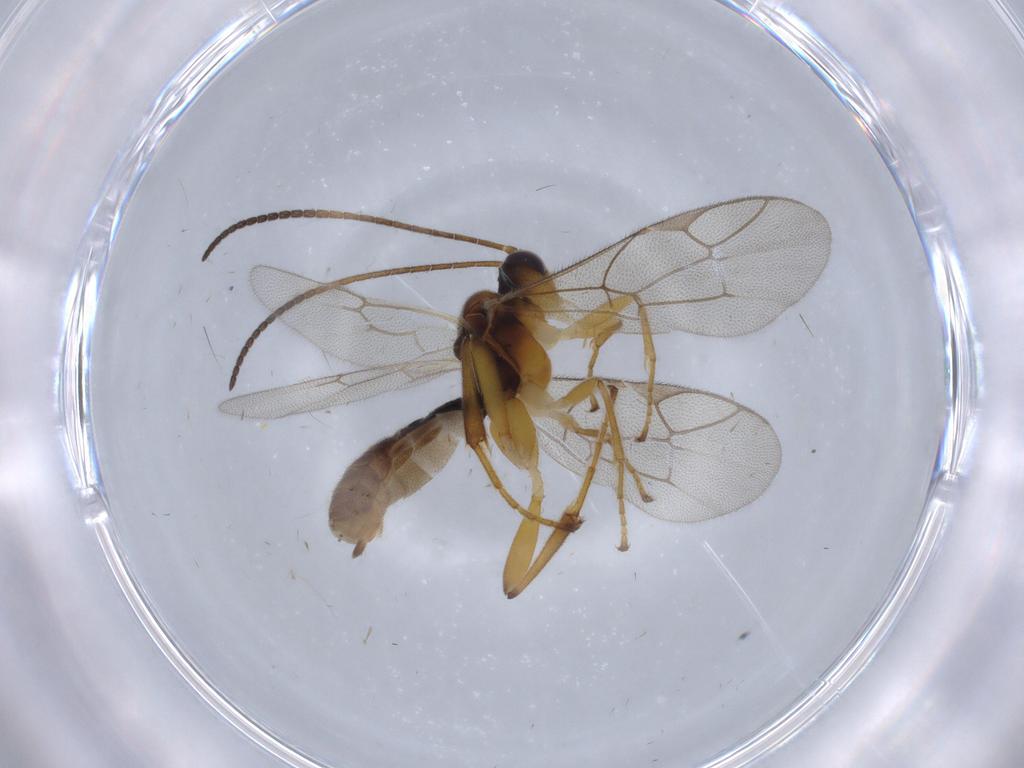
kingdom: Animalia
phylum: Arthropoda
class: Insecta
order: Hymenoptera
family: Ichneumonidae
